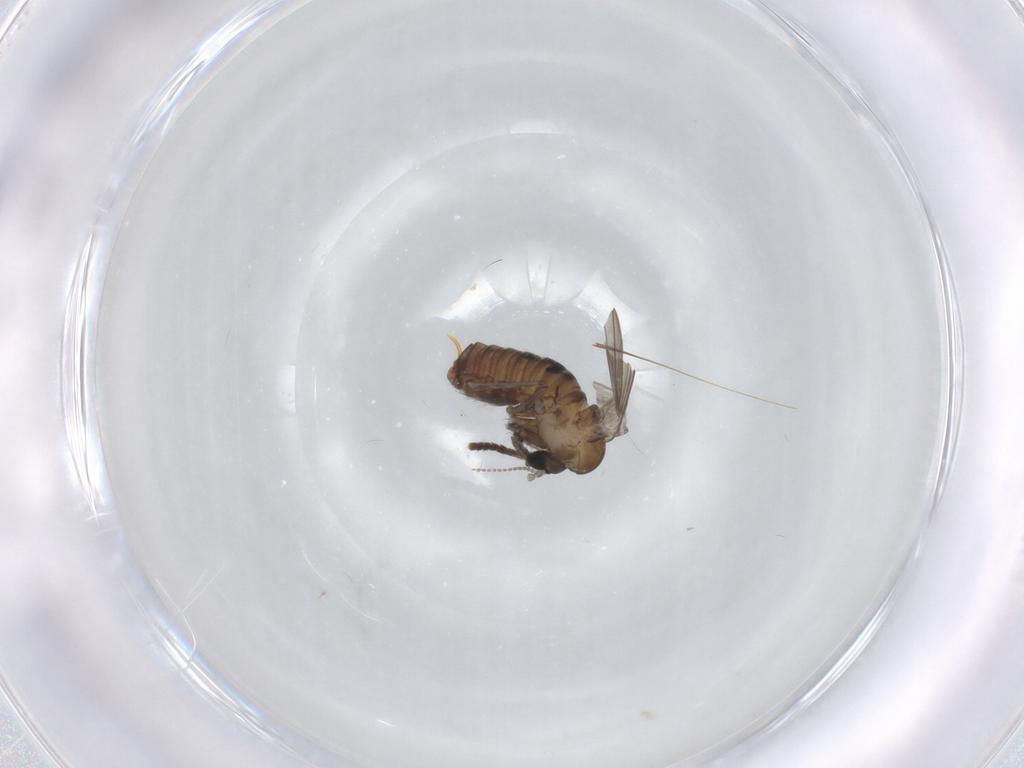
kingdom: Animalia
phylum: Arthropoda
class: Insecta
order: Diptera
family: Psychodidae
